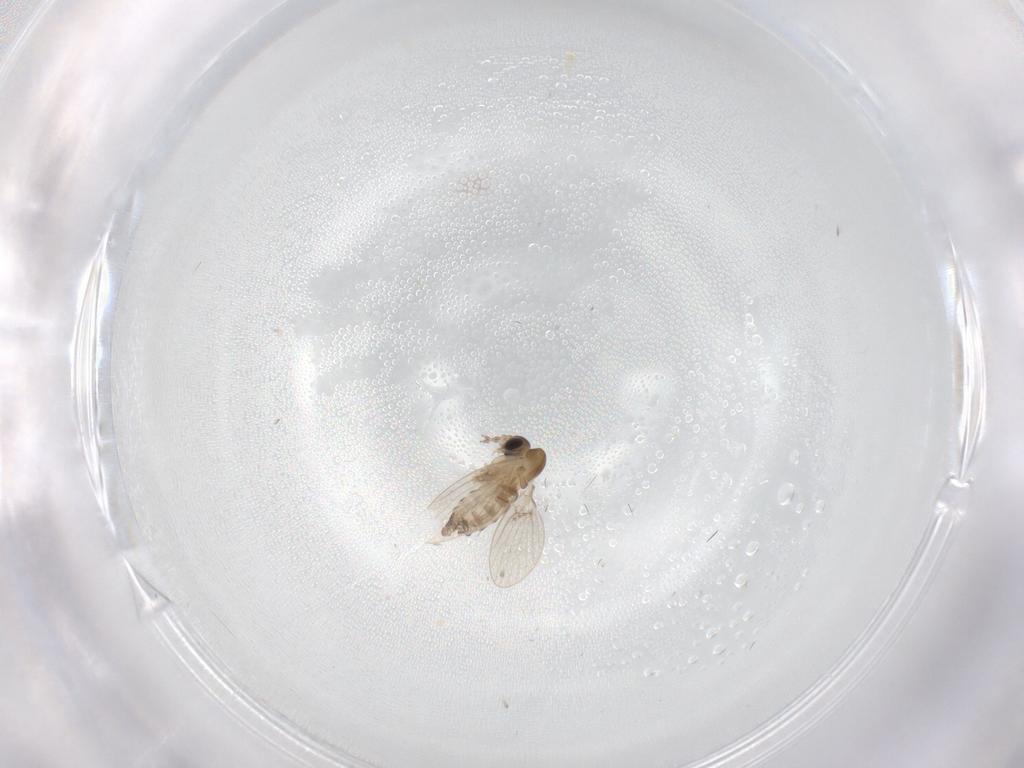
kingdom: Animalia
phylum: Arthropoda
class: Insecta
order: Diptera
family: Cecidomyiidae
